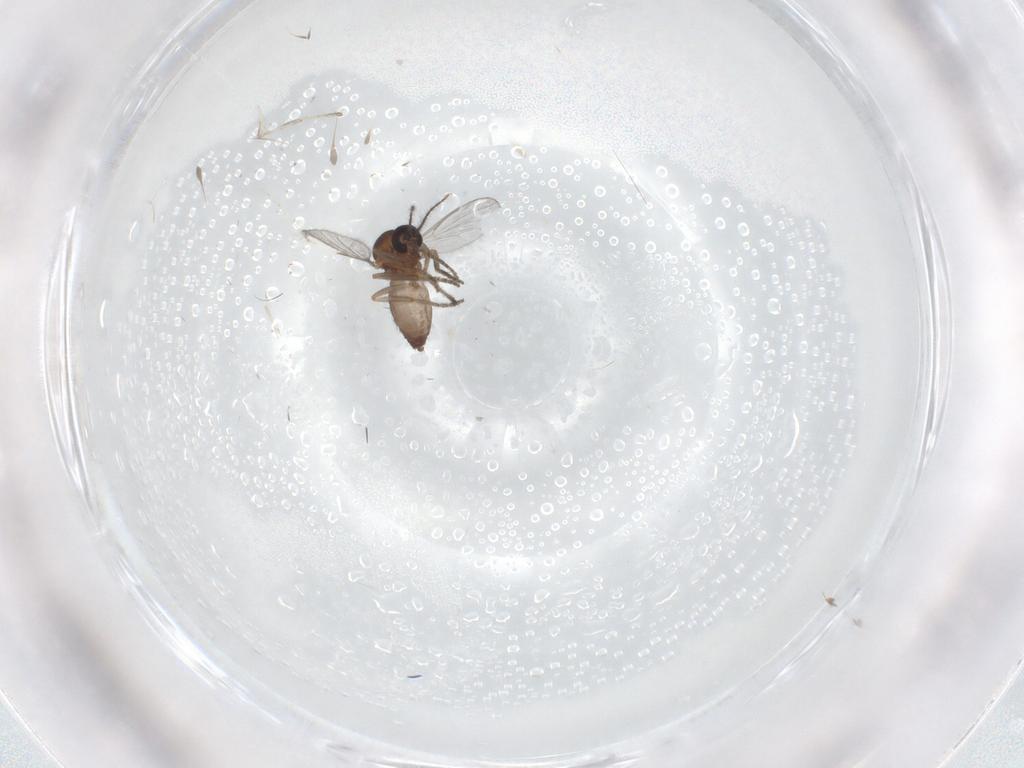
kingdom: Animalia
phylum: Arthropoda
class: Insecta
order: Diptera
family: Ceratopogonidae
